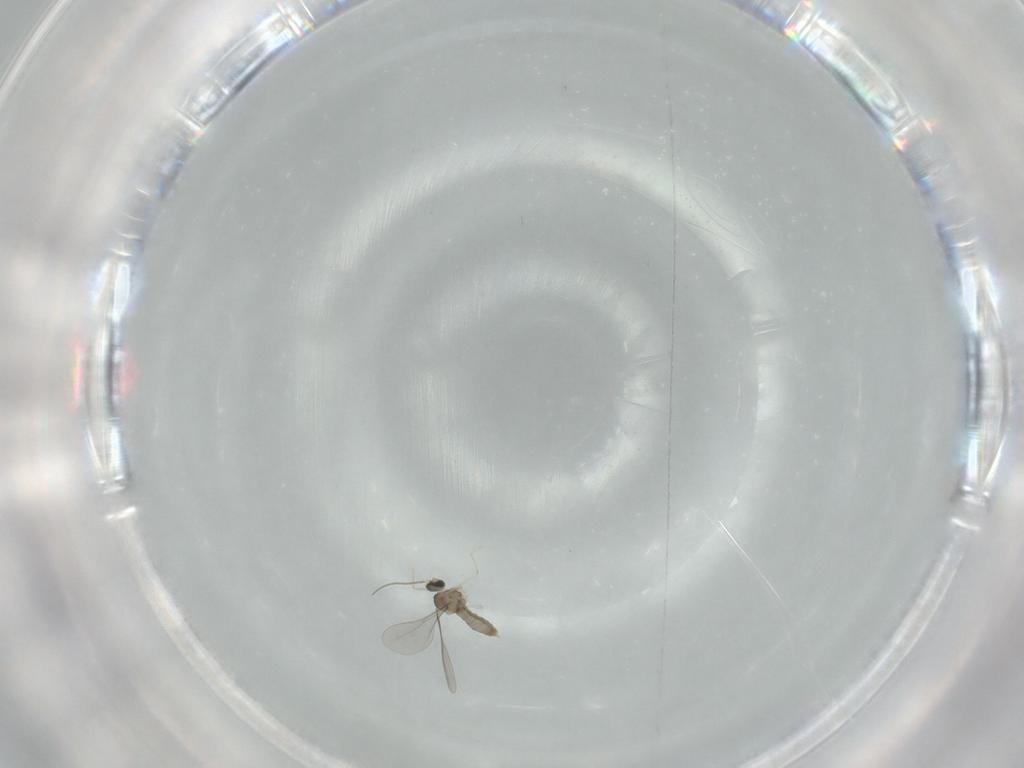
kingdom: Animalia
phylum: Arthropoda
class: Insecta
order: Diptera
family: Cecidomyiidae
